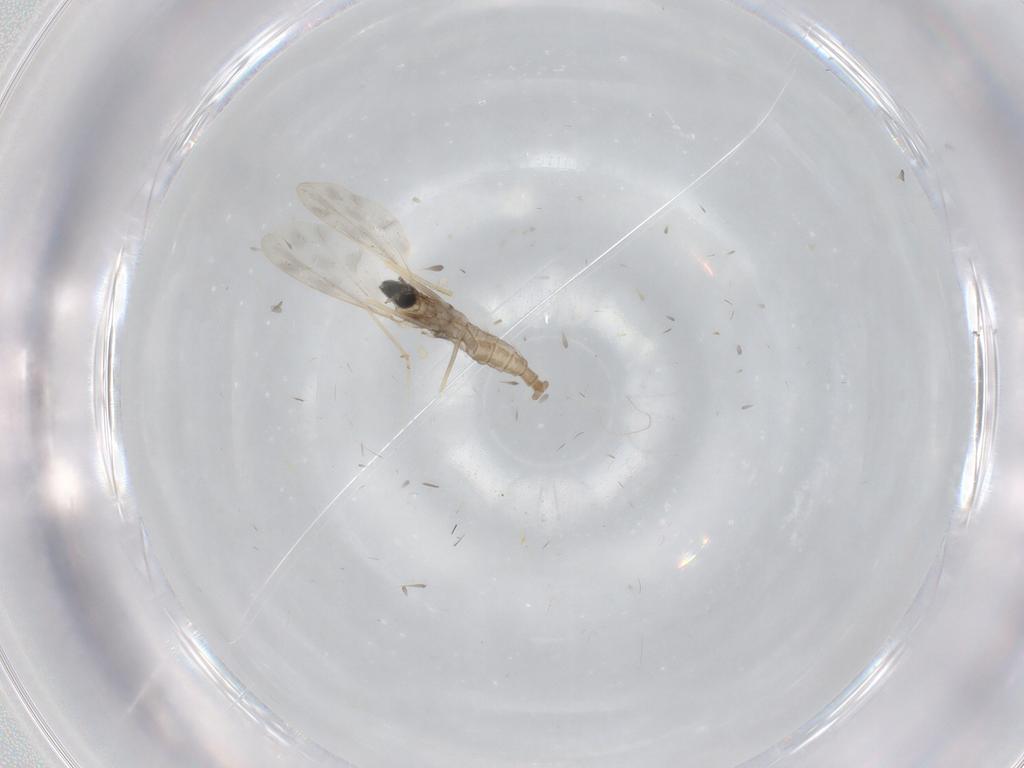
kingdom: Animalia
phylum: Arthropoda
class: Insecta
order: Diptera
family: Cecidomyiidae
